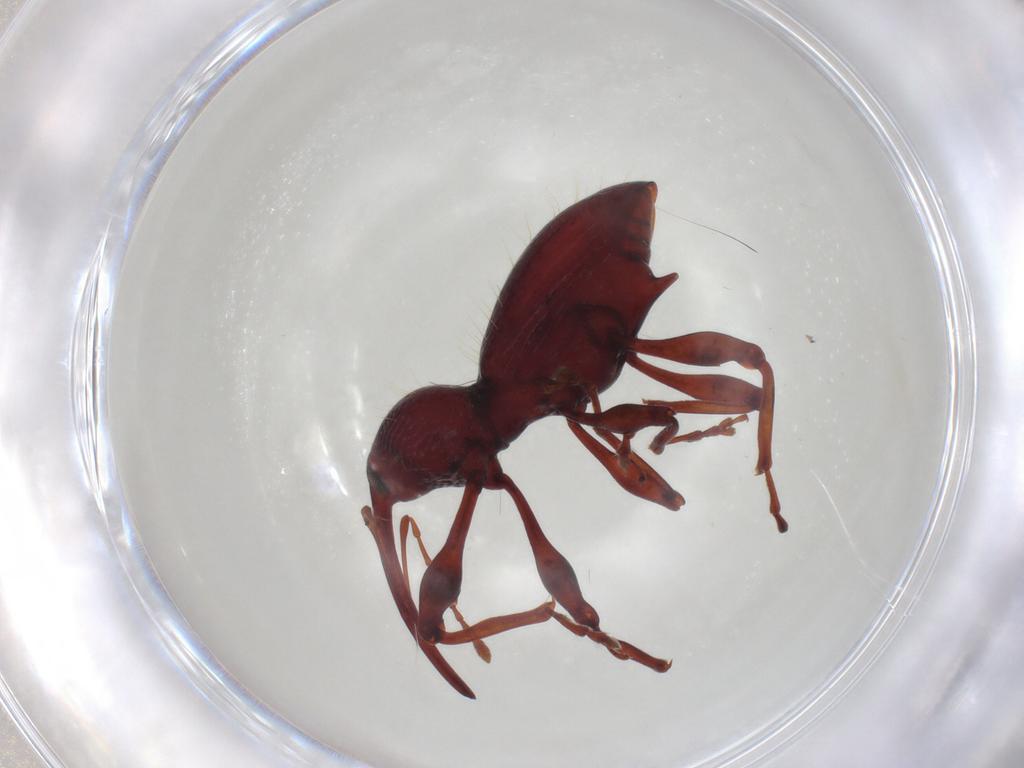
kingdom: Animalia
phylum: Arthropoda
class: Insecta
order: Coleoptera
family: Curculionidae
